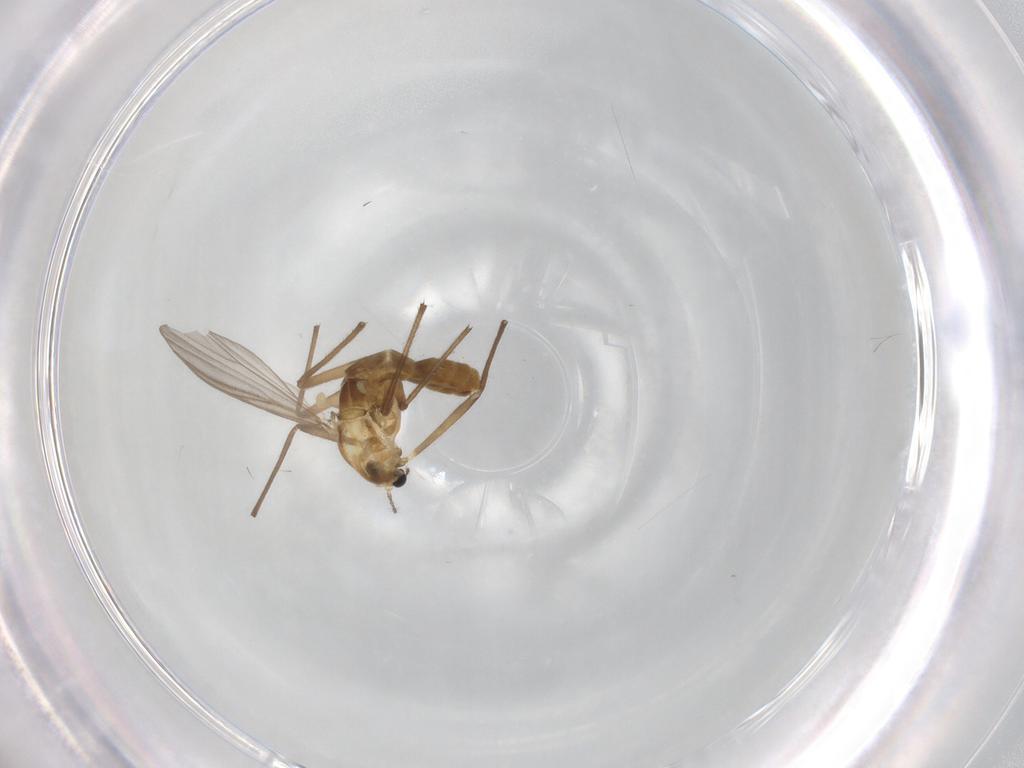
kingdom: Animalia
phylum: Arthropoda
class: Insecta
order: Diptera
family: Chironomidae
